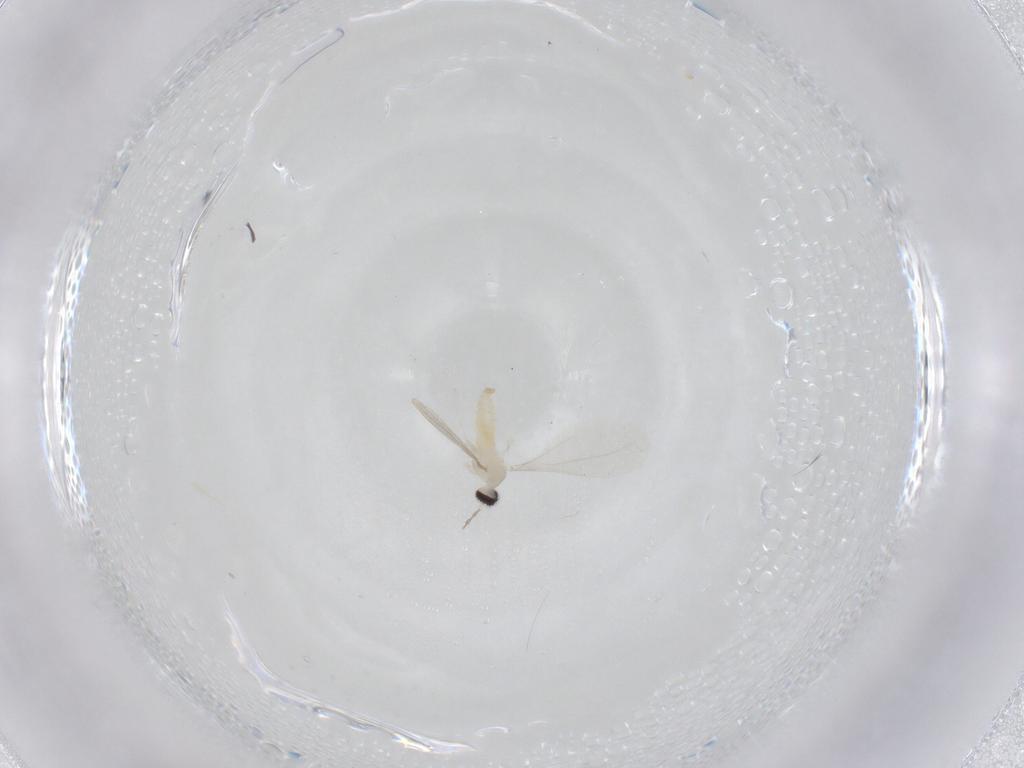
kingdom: Animalia
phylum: Arthropoda
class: Insecta
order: Diptera
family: Cecidomyiidae
